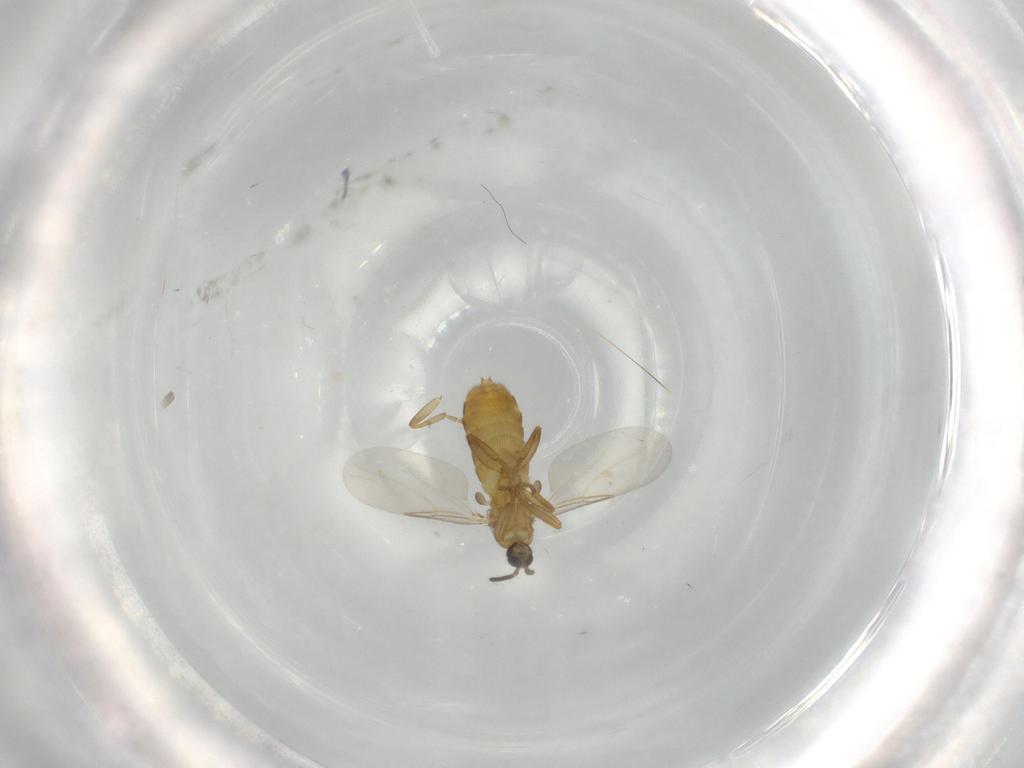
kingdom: Animalia
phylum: Arthropoda
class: Insecta
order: Diptera
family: Scatopsidae
